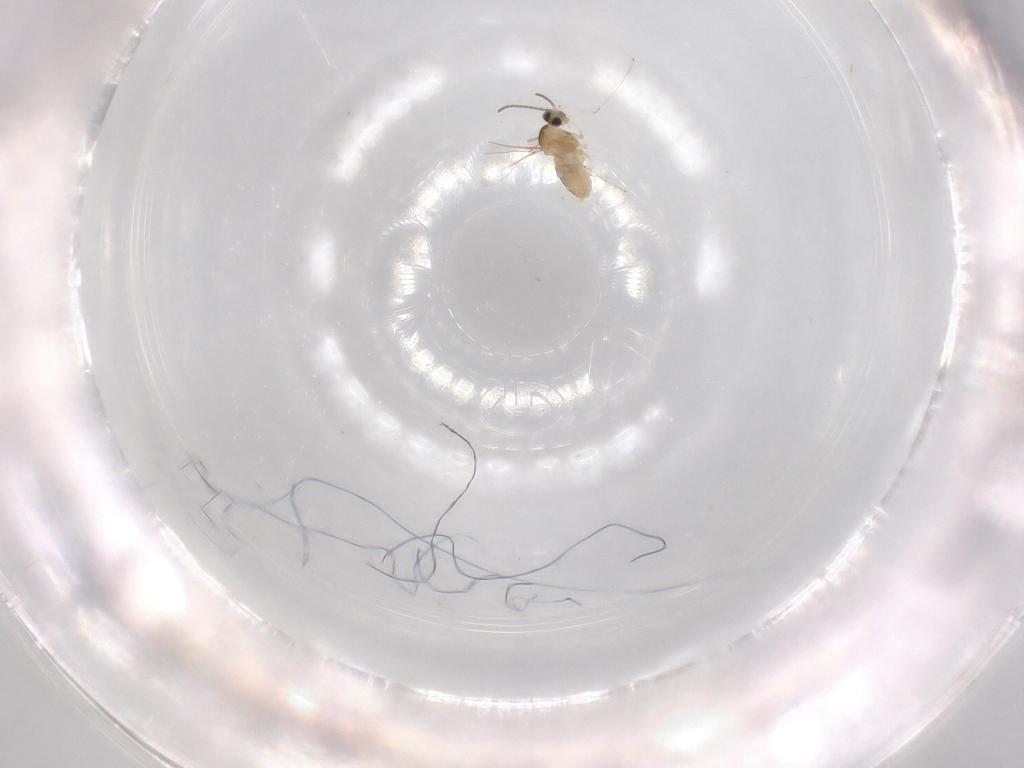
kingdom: Animalia
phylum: Arthropoda
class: Insecta
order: Diptera
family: Cecidomyiidae
